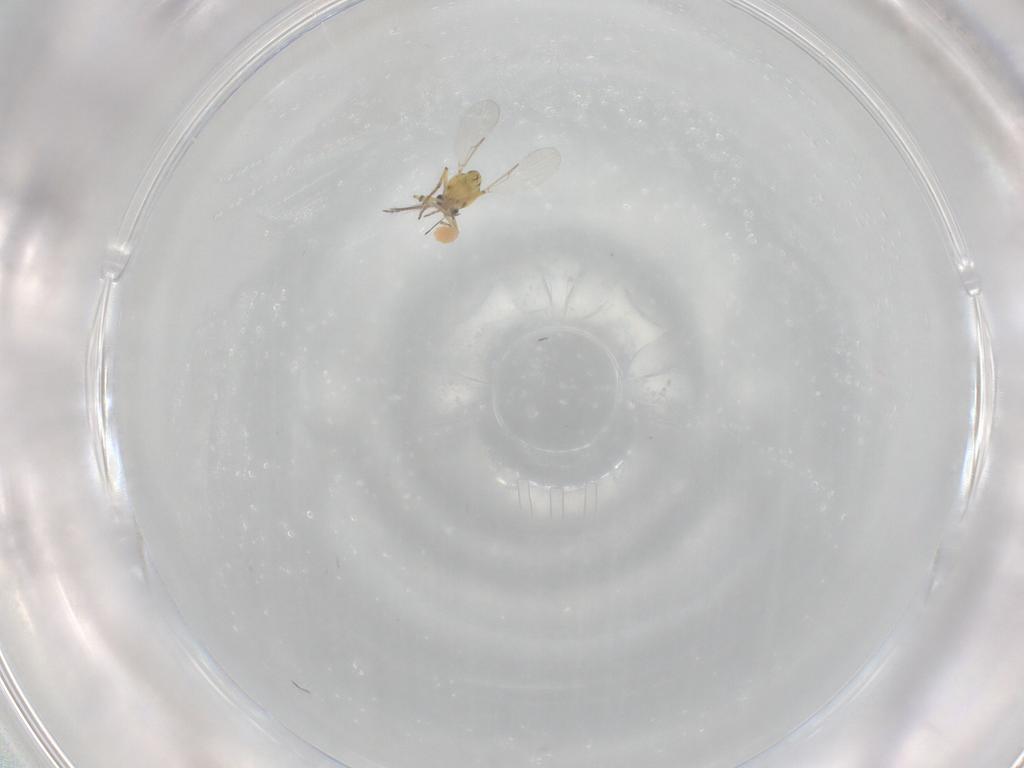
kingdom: Animalia
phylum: Arthropoda
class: Insecta
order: Diptera
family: Ceratopogonidae
